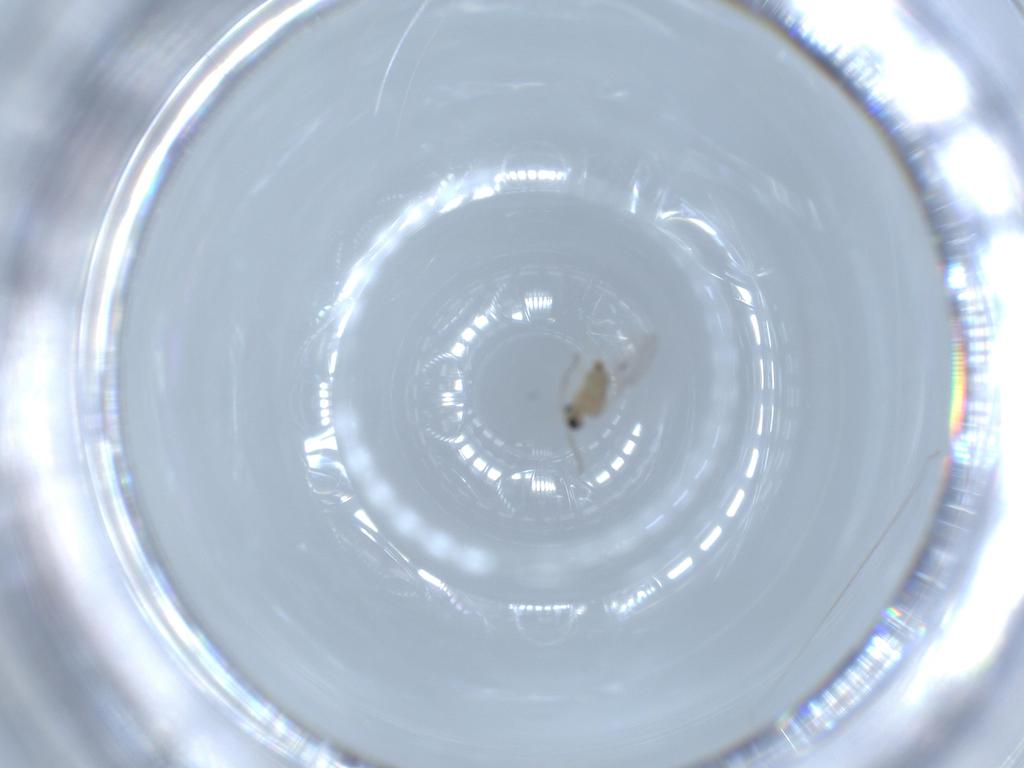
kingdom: Animalia
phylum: Arthropoda
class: Insecta
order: Diptera
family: Cecidomyiidae
